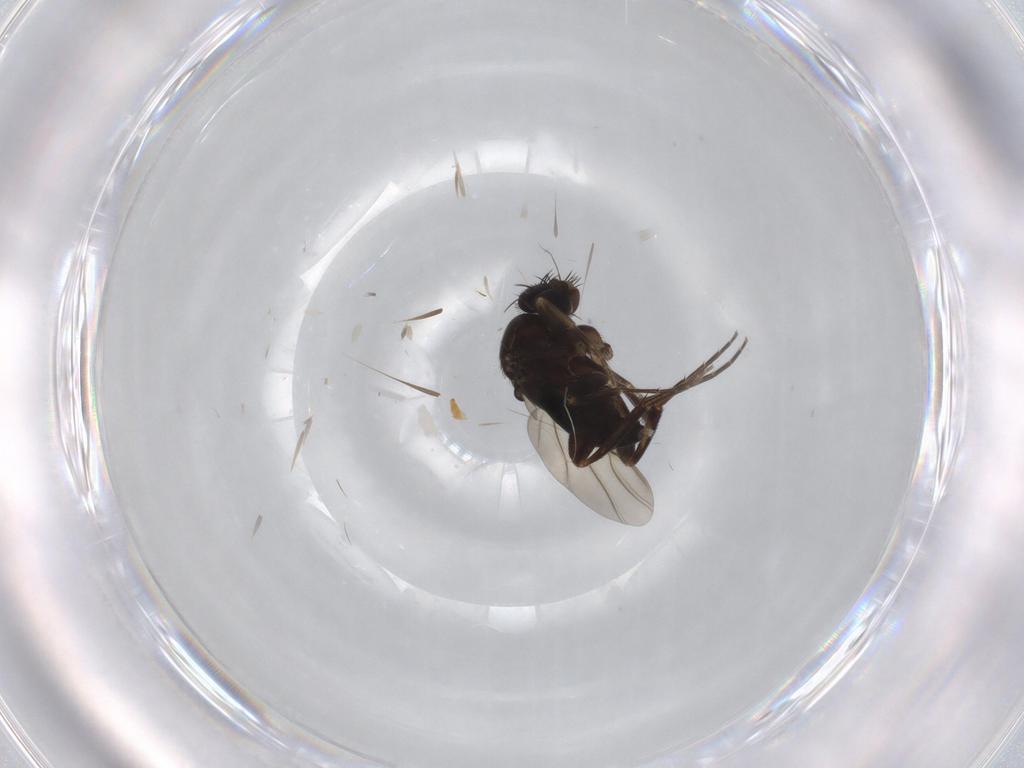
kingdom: Animalia
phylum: Arthropoda
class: Insecta
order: Diptera
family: Phoridae
